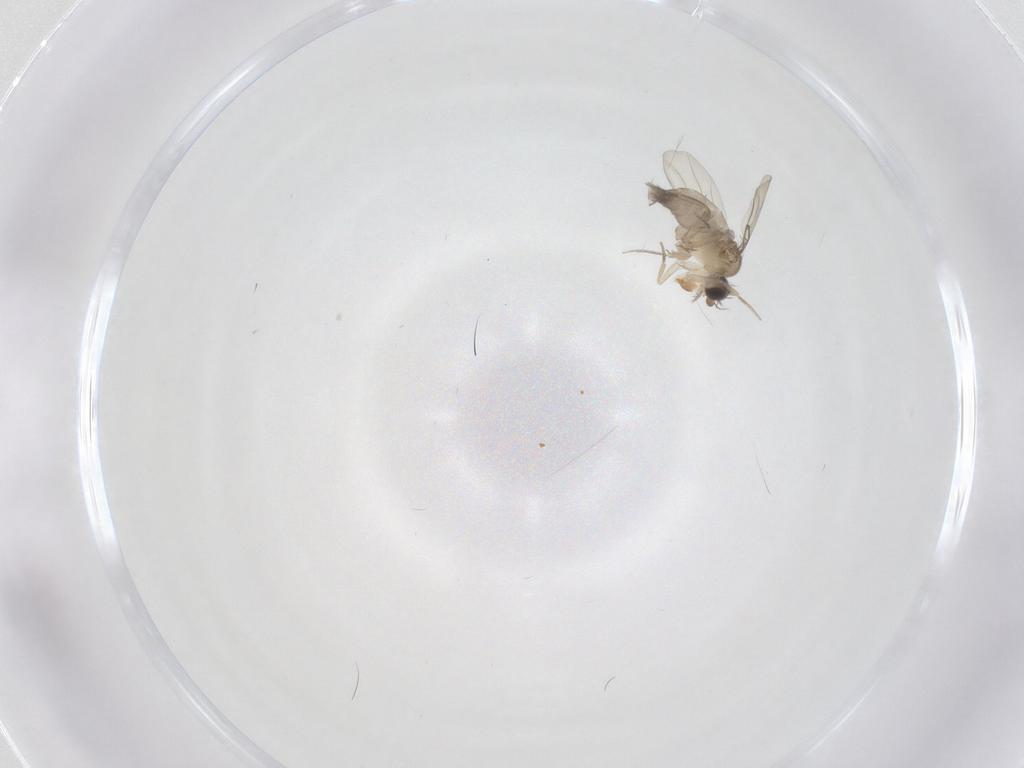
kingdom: Animalia
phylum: Arthropoda
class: Insecta
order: Diptera
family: Phoridae
